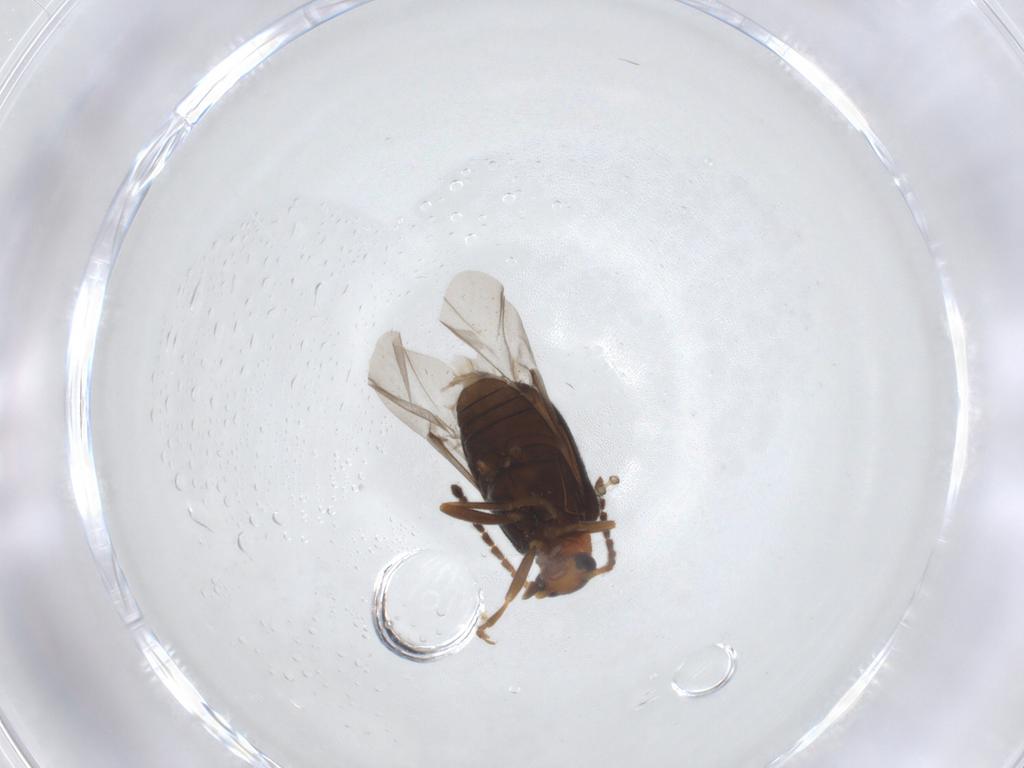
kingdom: Animalia
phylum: Arthropoda
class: Insecta
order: Coleoptera
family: Aderidae
